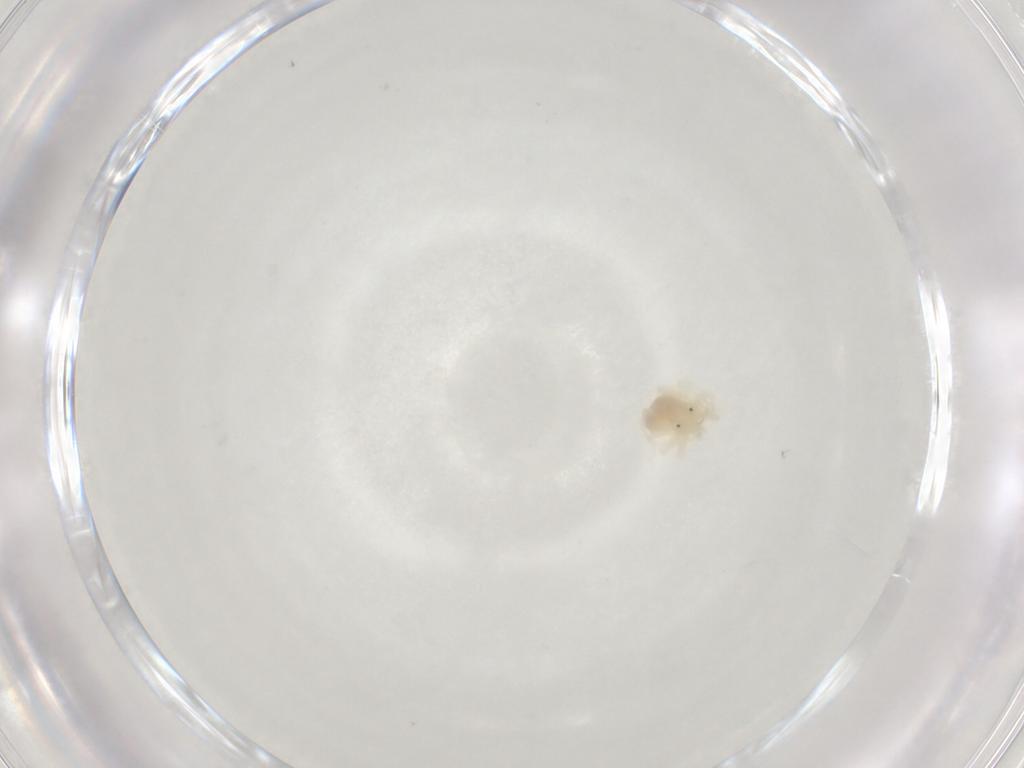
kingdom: Animalia
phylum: Arthropoda
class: Arachnida
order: Trombidiformes
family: Anystidae
